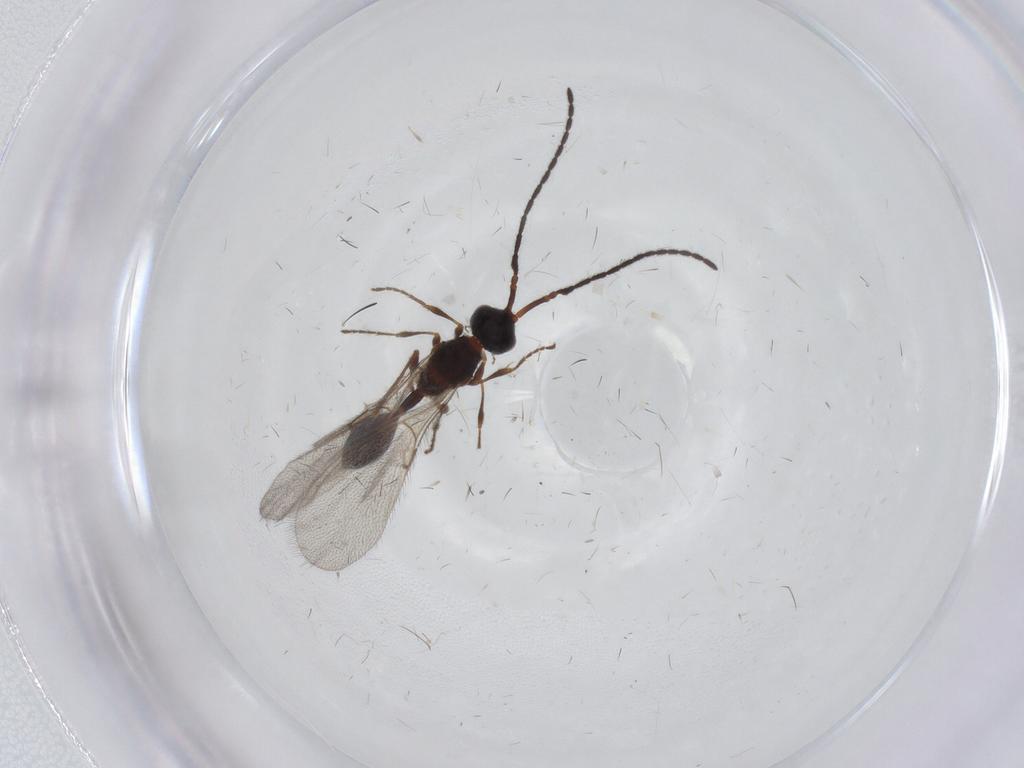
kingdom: Animalia
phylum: Arthropoda
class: Insecta
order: Hymenoptera
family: Diapriidae
